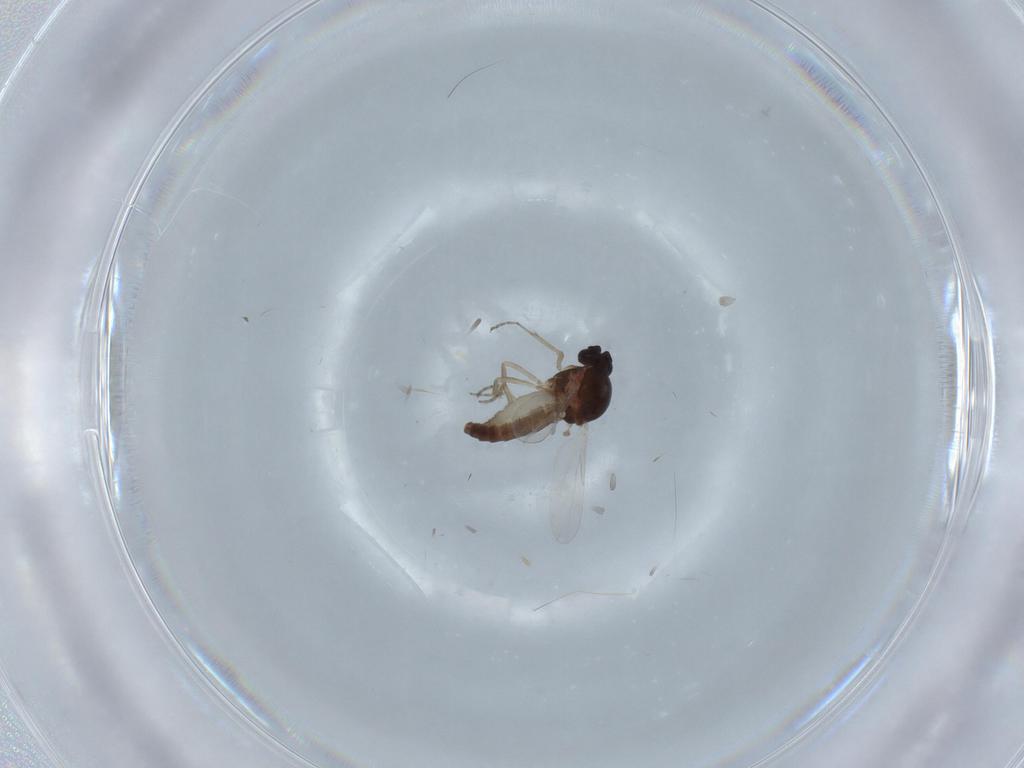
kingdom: Animalia
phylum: Arthropoda
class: Insecta
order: Diptera
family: Ceratopogonidae
